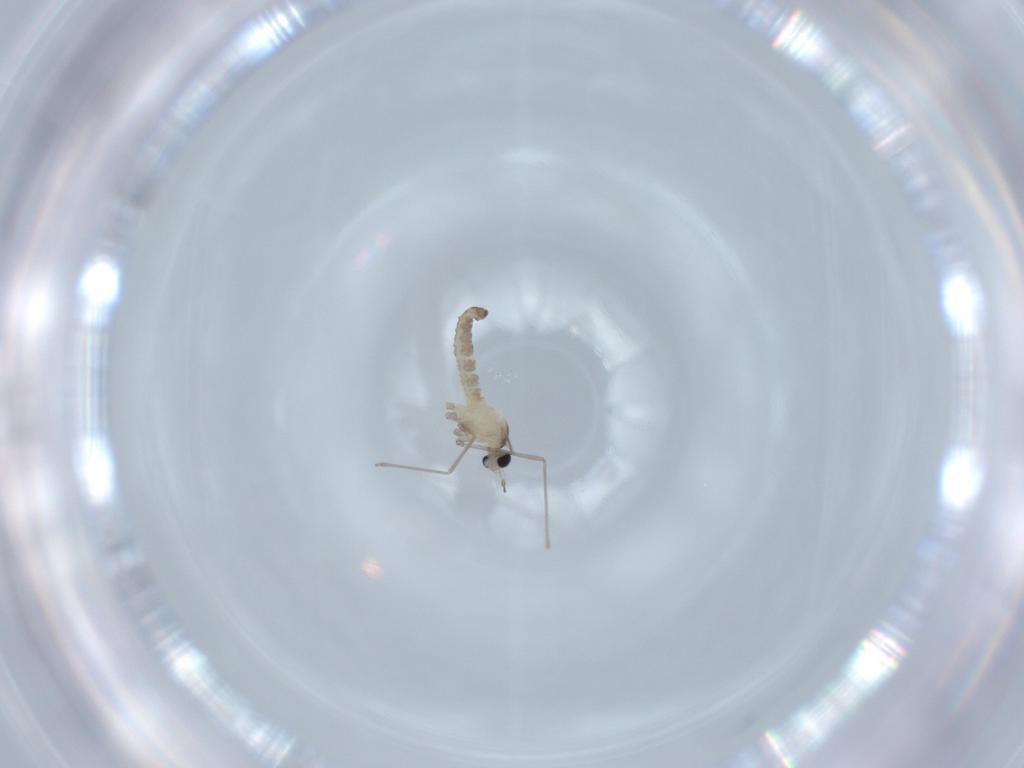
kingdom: Animalia
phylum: Arthropoda
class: Insecta
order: Diptera
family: Cecidomyiidae
